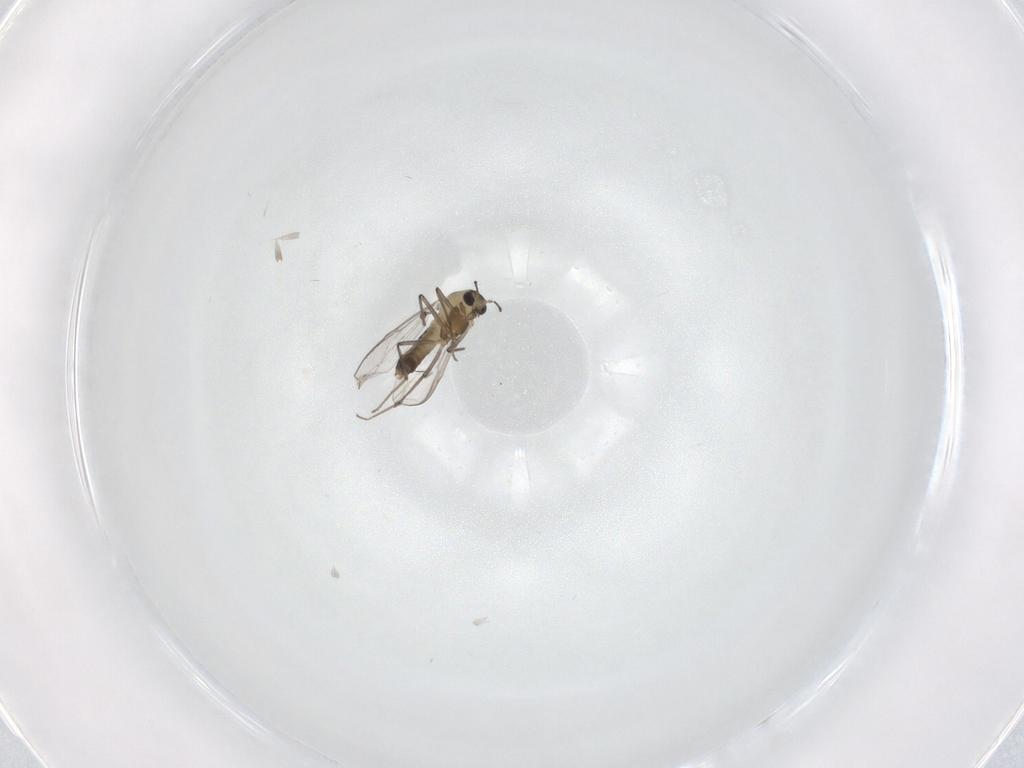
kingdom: Animalia
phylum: Arthropoda
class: Insecta
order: Diptera
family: Chironomidae
